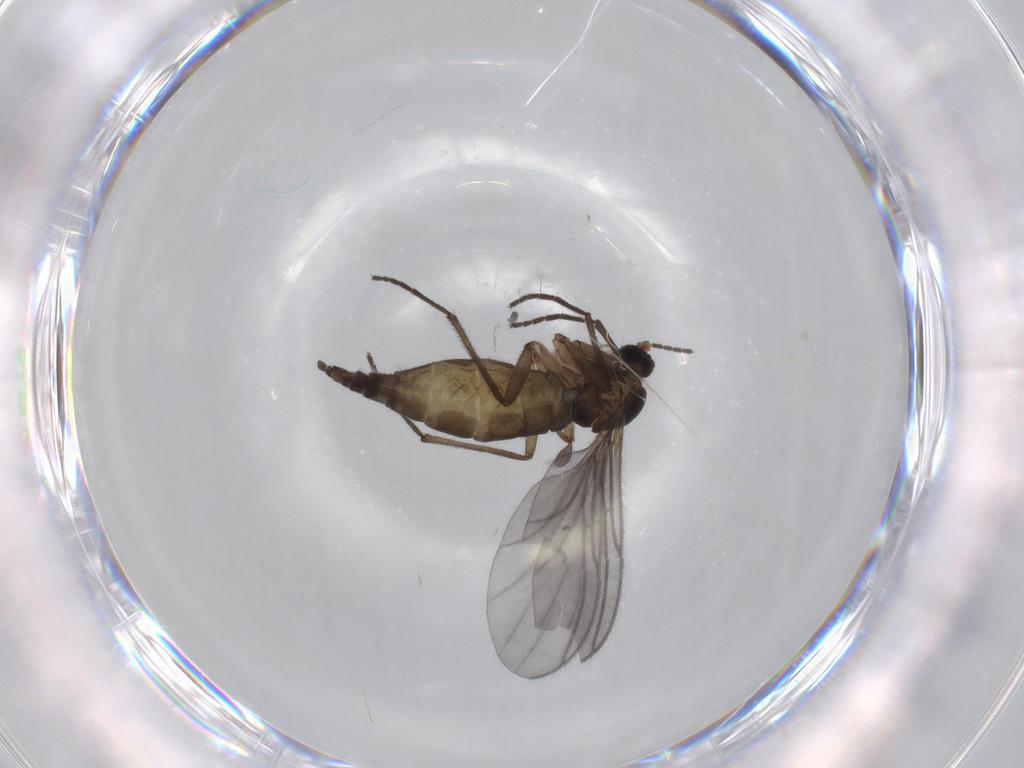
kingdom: Animalia
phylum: Arthropoda
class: Insecta
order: Diptera
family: Sciaridae
